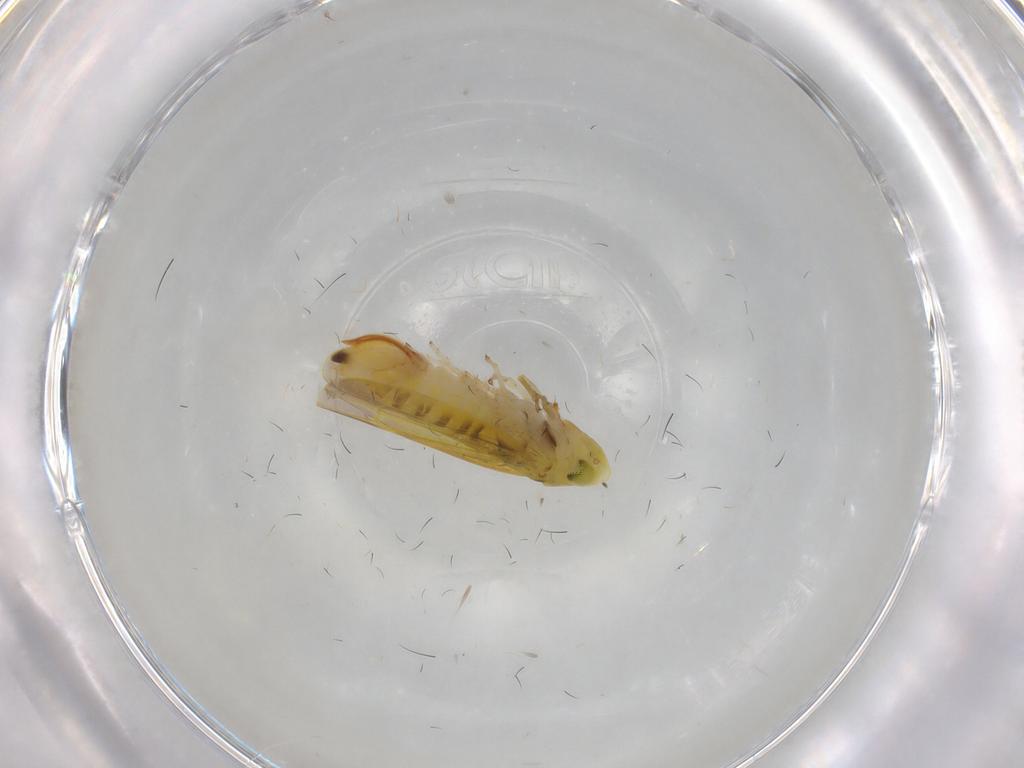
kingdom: Animalia
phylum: Arthropoda
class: Insecta
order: Hemiptera
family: Cicadellidae
